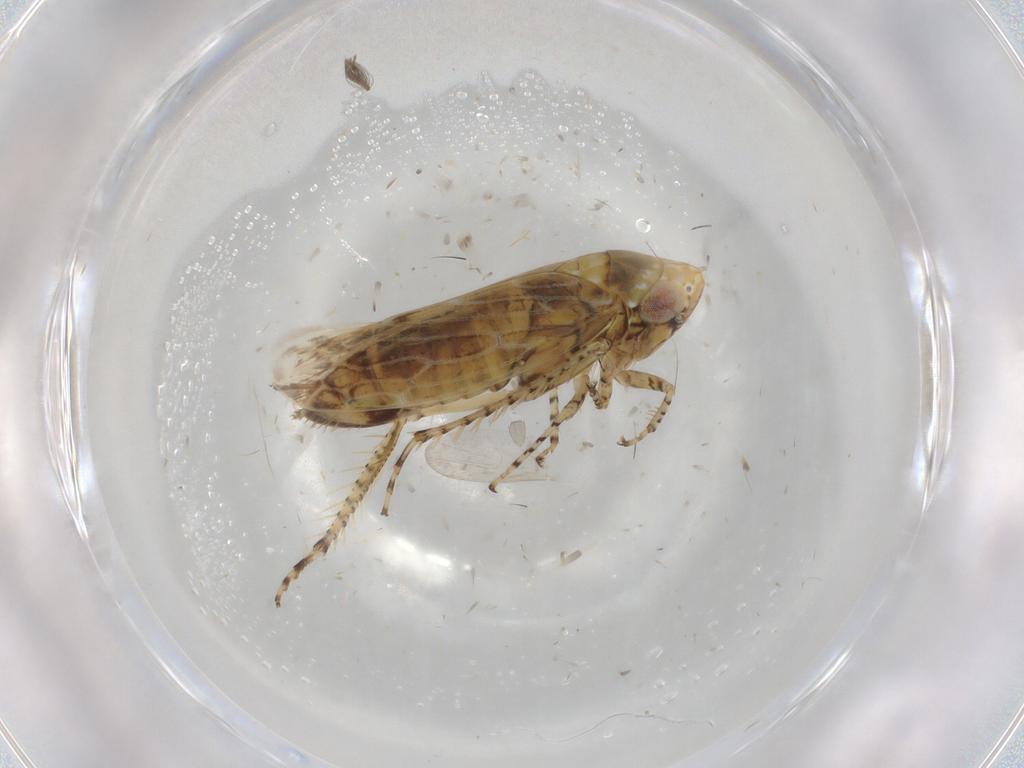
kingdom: Animalia
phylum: Arthropoda
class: Insecta
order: Hemiptera
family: Cicadellidae
